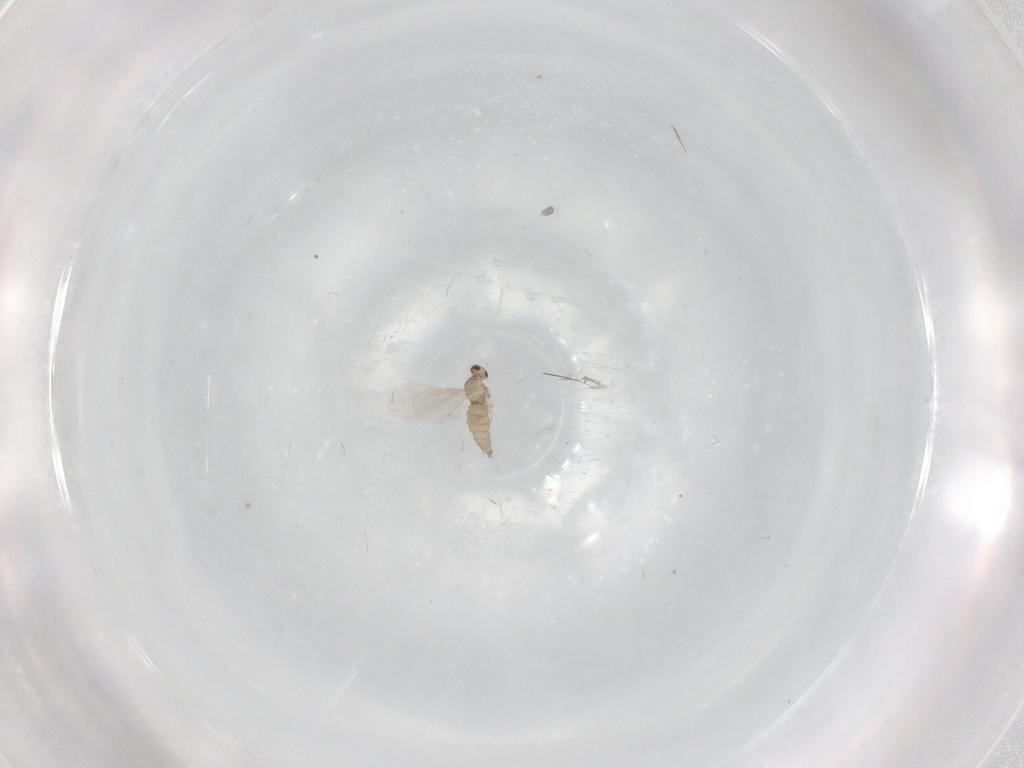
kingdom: Animalia
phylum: Arthropoda
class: Insecta
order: Diptera
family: Cecidomyiidae
